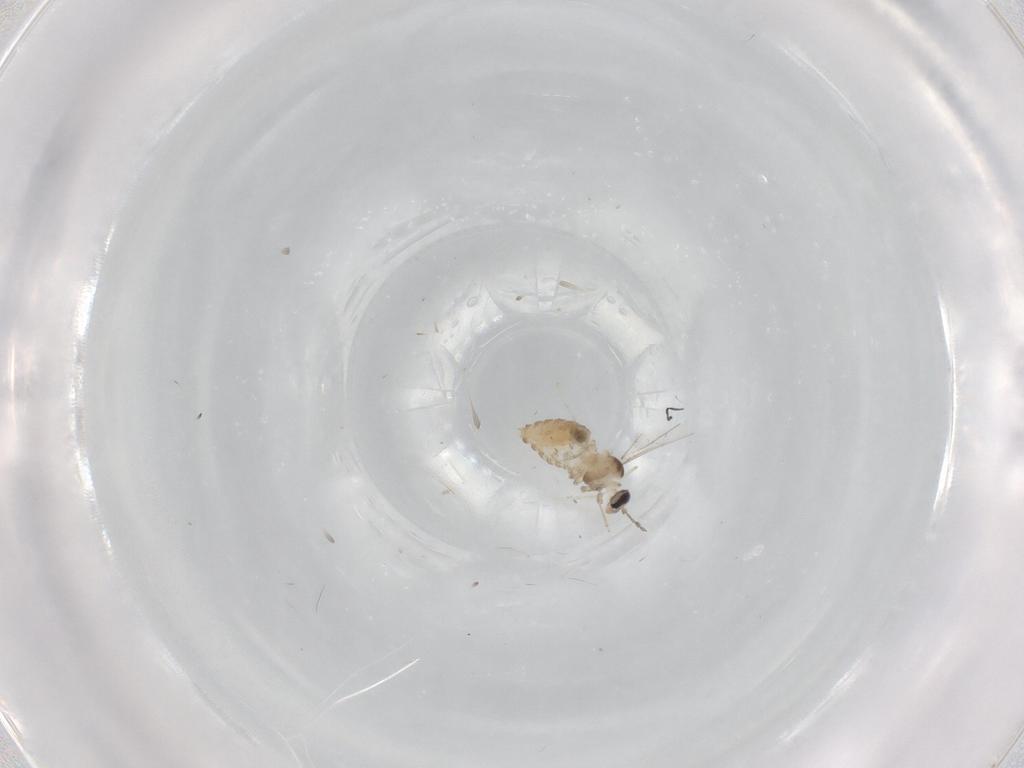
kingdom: Animalia
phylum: Arthropoda
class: Insecta
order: Diptera
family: Cecidomyiidae
